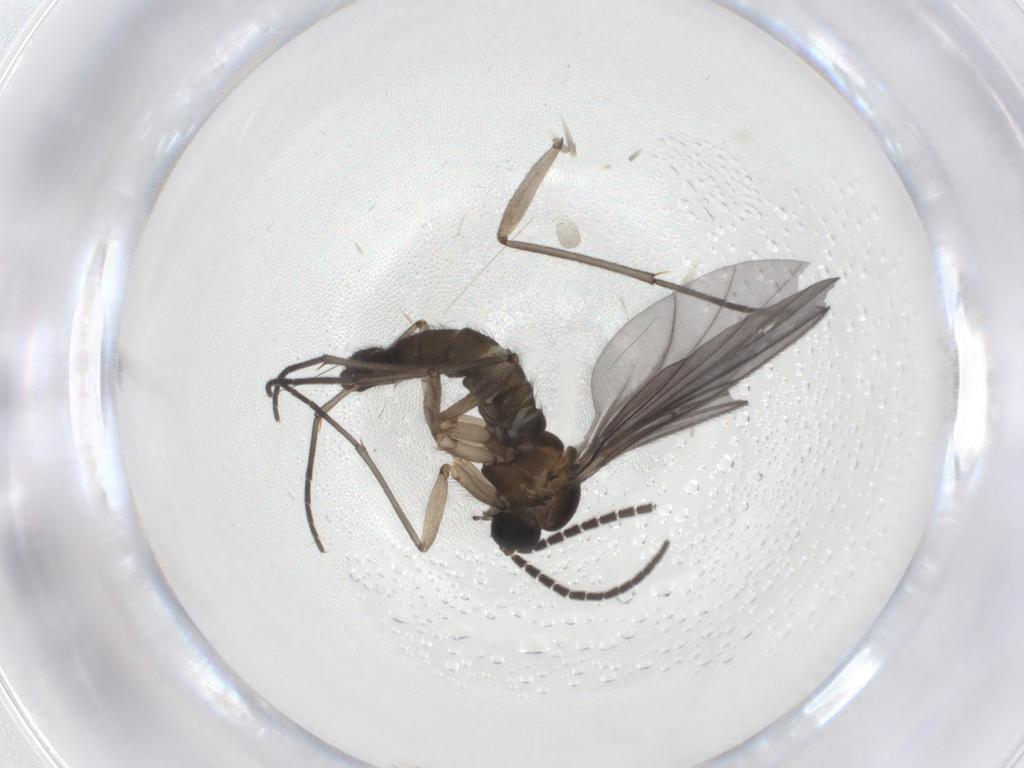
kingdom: Animalia
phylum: Arthropoda
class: Insecta
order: Diptera
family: Sciaridae
